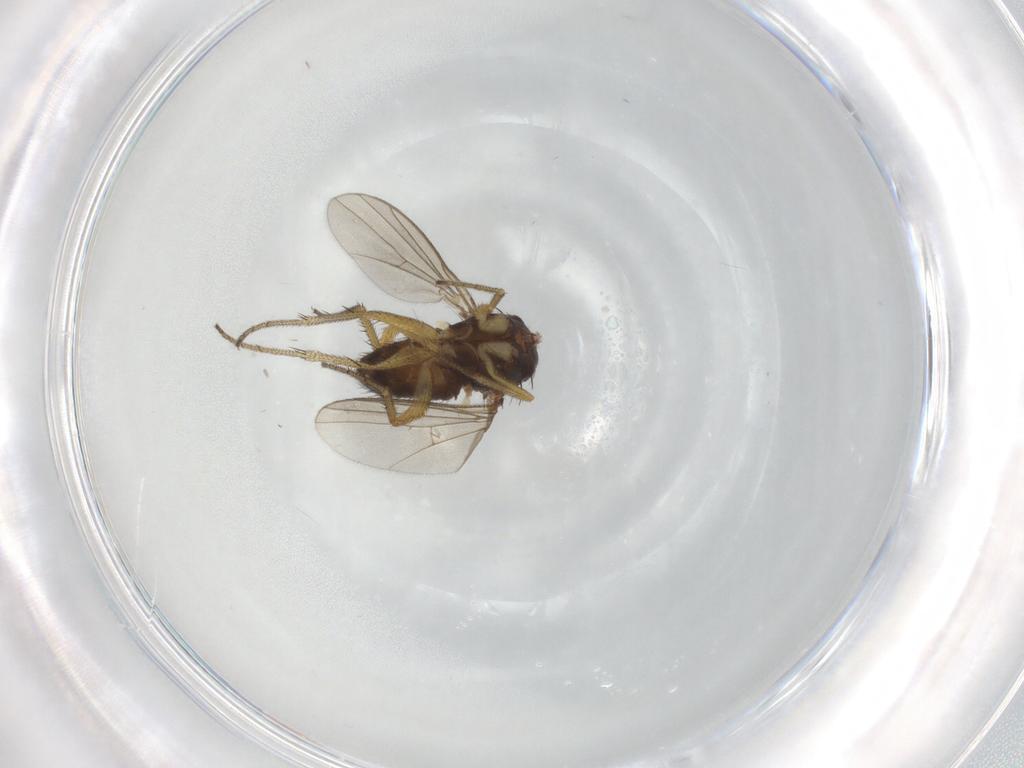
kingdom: Animalia
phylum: Arthropoda
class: Insecta
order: Diptera
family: Dolichopodidae
